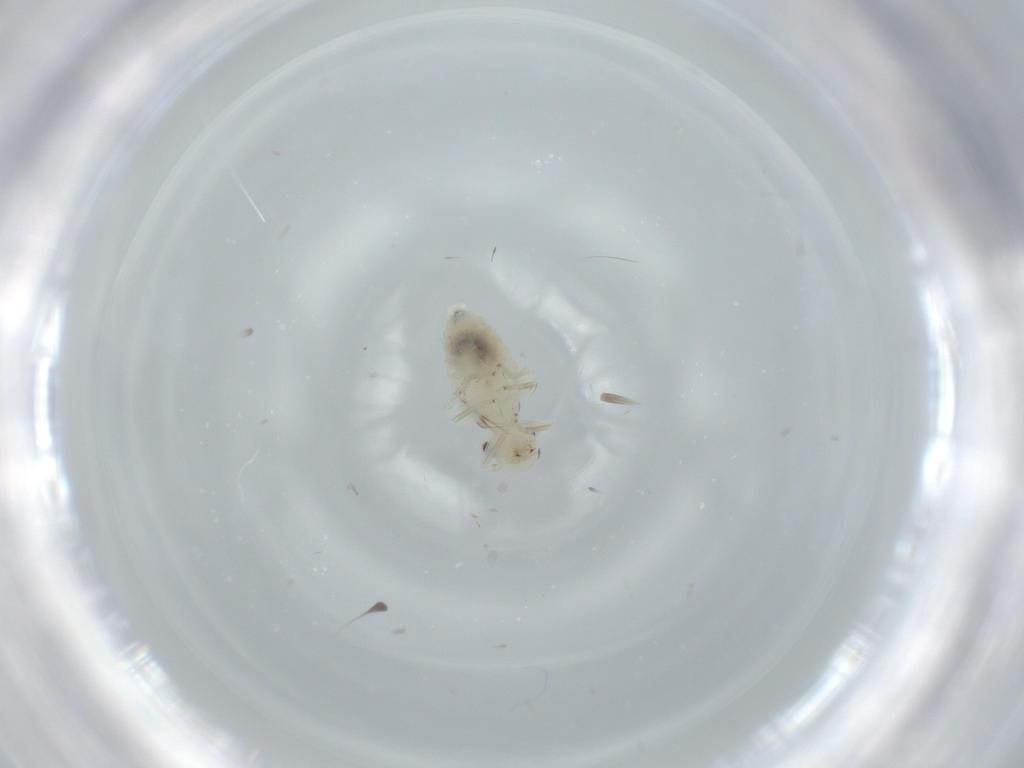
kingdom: Animalia
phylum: Arthropoda
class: Insecta
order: Psocodea
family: Caeciliusidae
